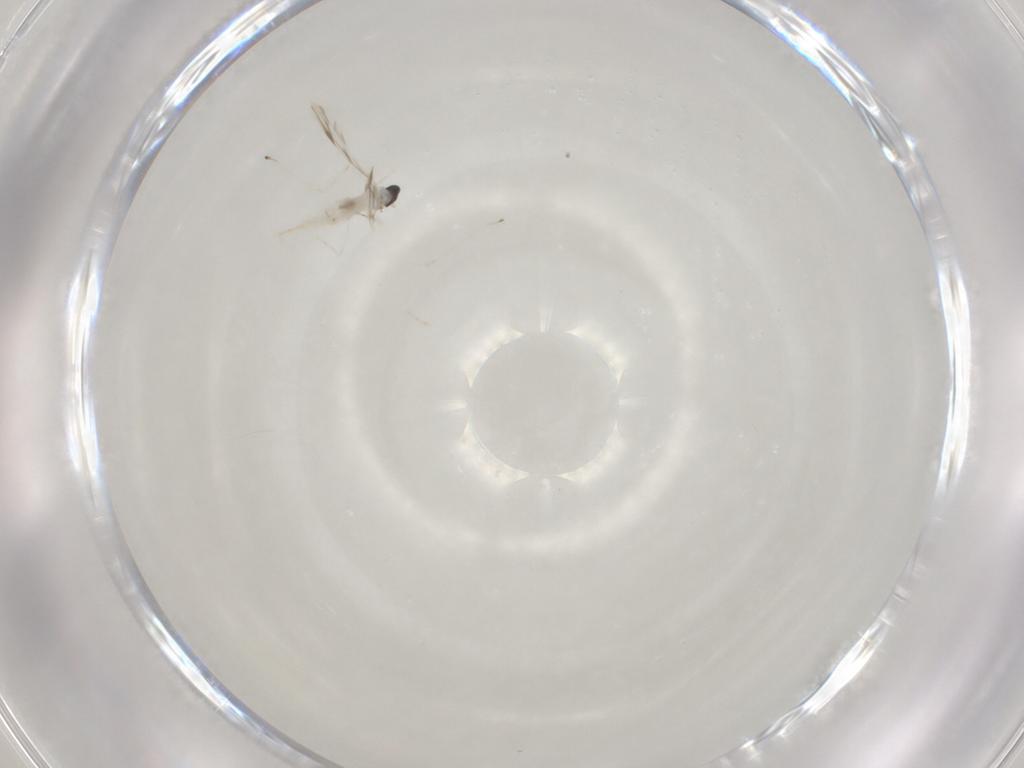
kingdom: Animalia
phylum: Arthropoda
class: Insecta
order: Diptera
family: Cecidomyiidae
